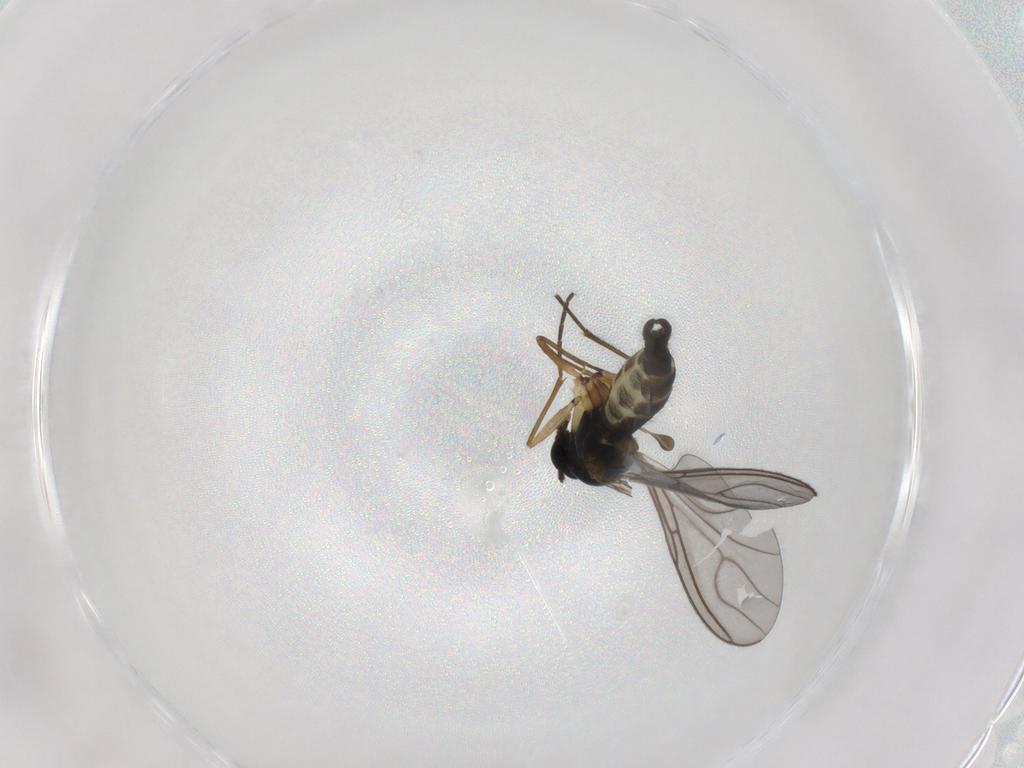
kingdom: Animalia
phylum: Arthropoda
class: Insecta
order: Diptera
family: Sciaridae
